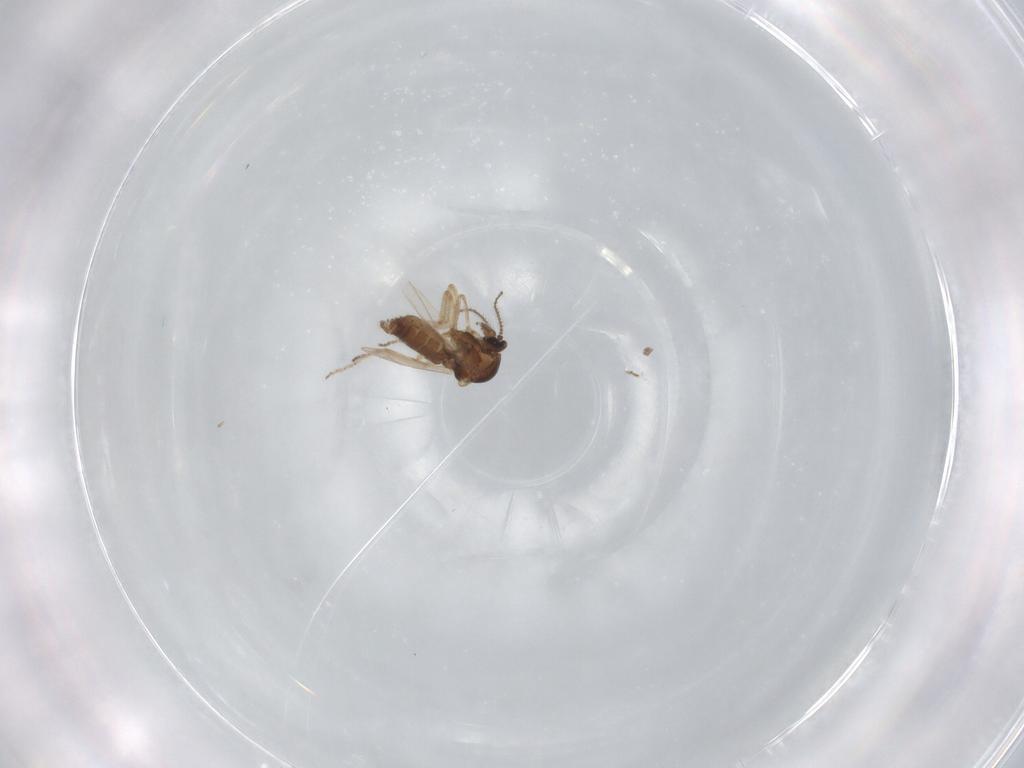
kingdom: Animalia
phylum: Arthropoda
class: Insecta
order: Diptera
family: Ceratopogonidae
